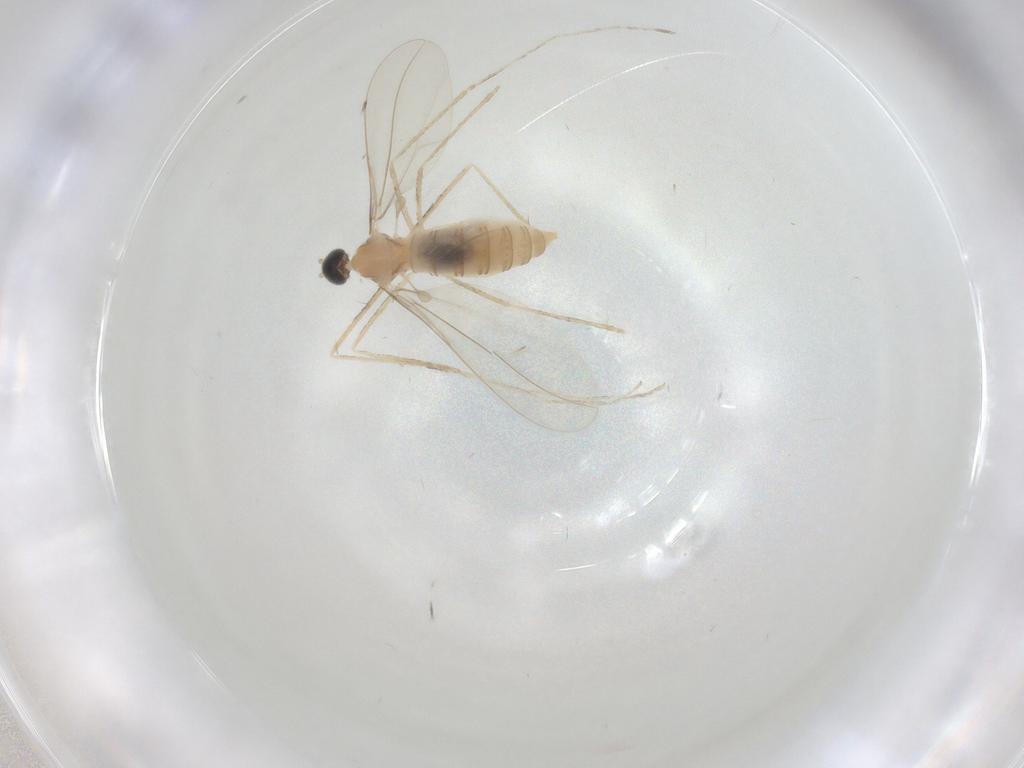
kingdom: Animalia
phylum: Arthropoda
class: Insecta
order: Diptera
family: Cecidomyiidae
